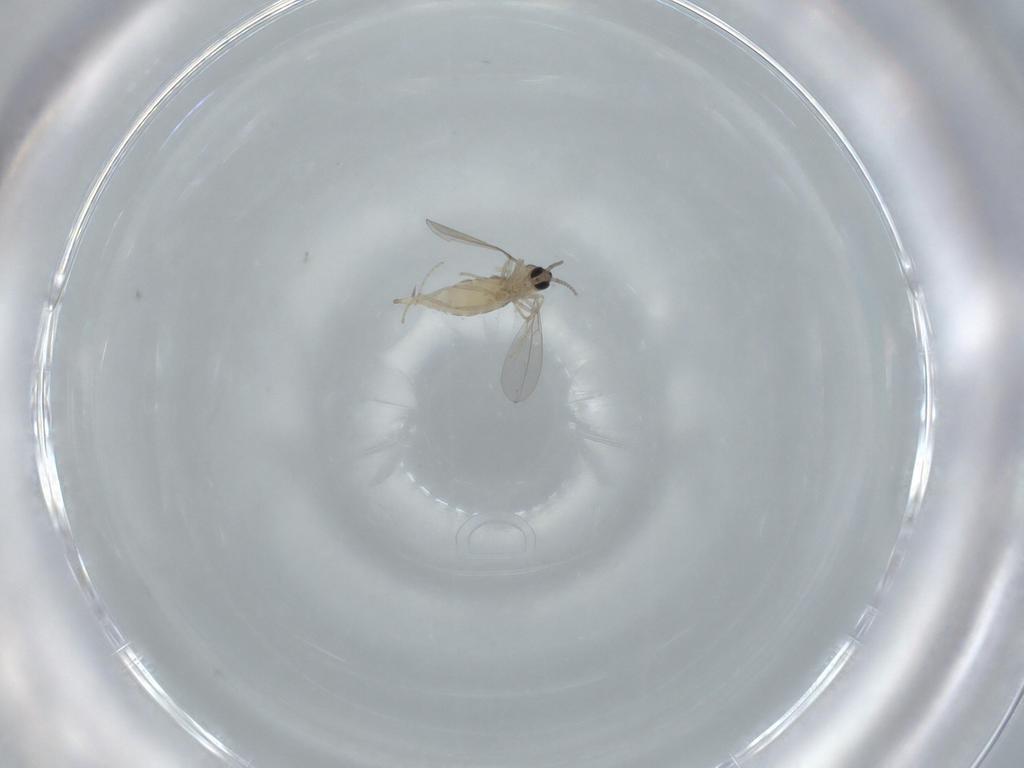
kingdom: Animalia
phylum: Arthropoda
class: Insecta
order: Diptera
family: Cecidomyiidae
